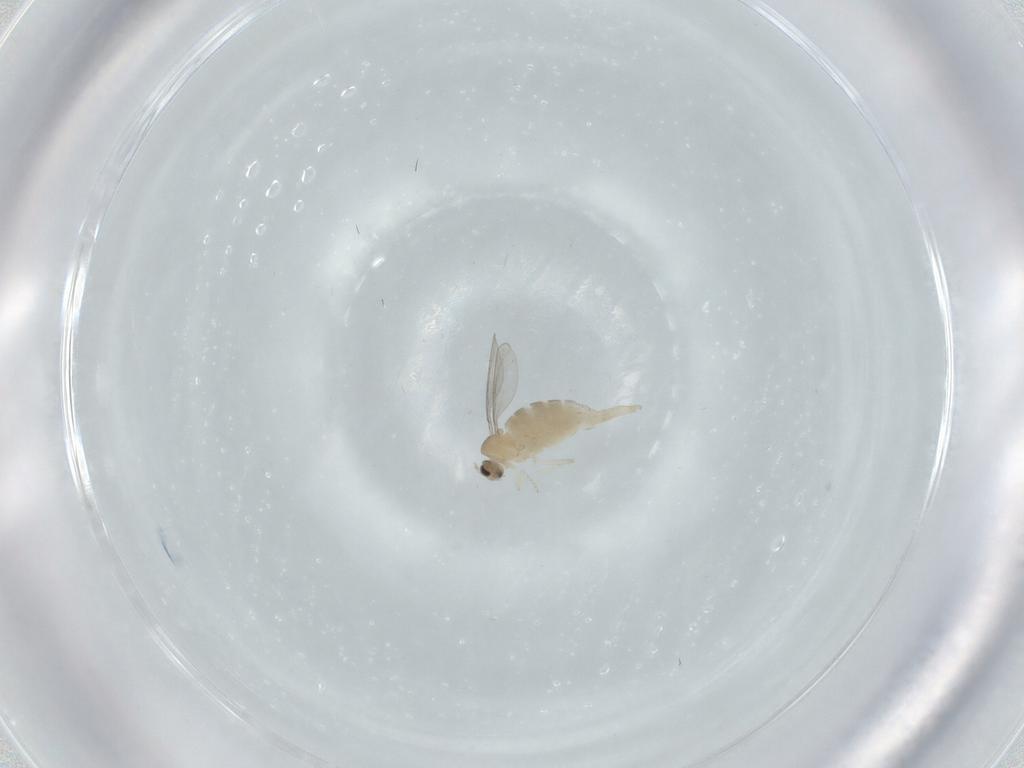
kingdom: Animalia
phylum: Arthropoda
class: Insecta
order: Diptera
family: Cecidomyiidae
